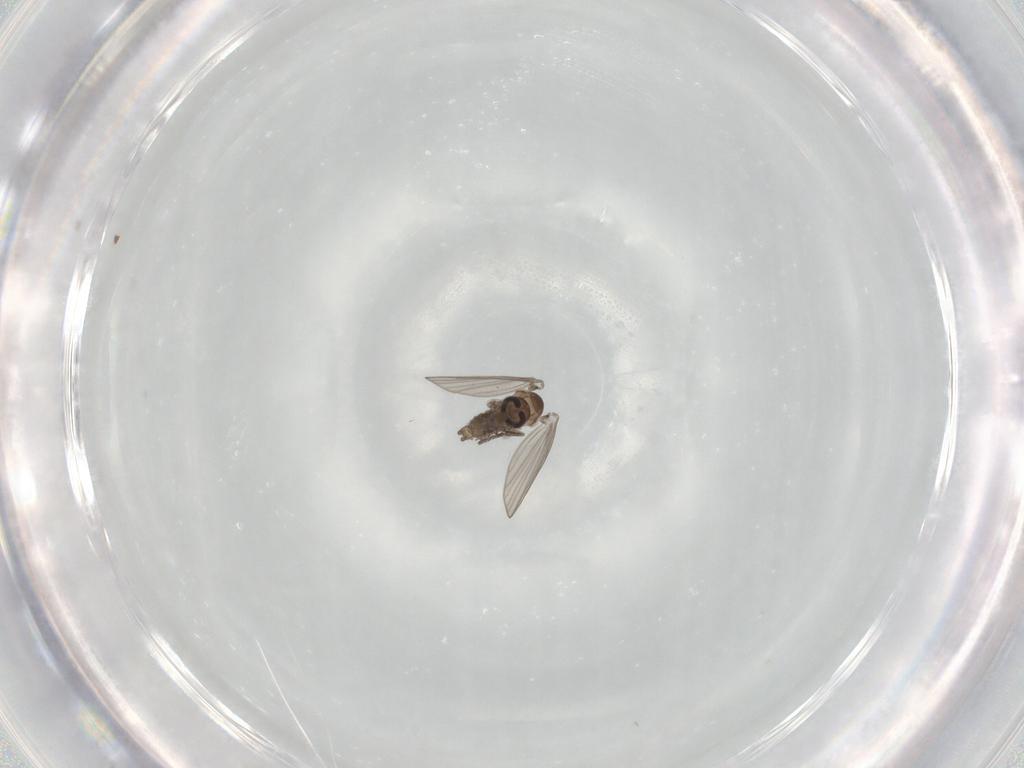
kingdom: Animalia
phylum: Arthropoda
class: Insecta
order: Diptera
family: Psychodidae
